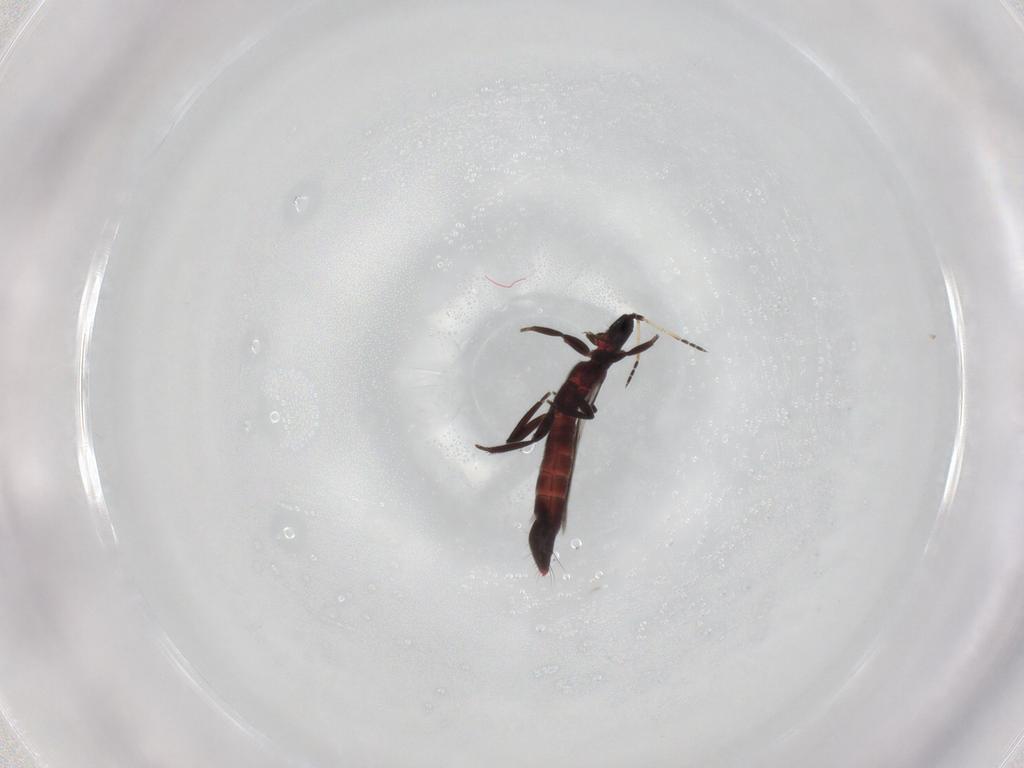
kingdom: Animalia
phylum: Arthropoda
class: Insecta
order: Thysanoptera
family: Aeolothripidae
